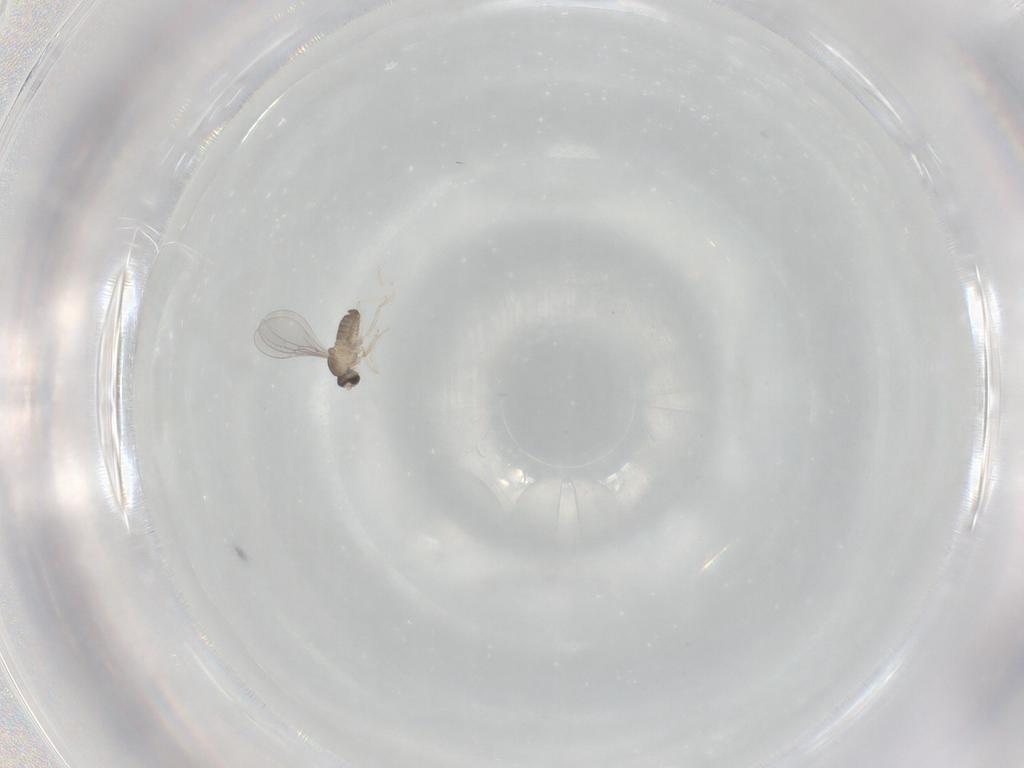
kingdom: Animalia
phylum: Arthropoda
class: Insecta
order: Diptera
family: Cecidomyiidae
